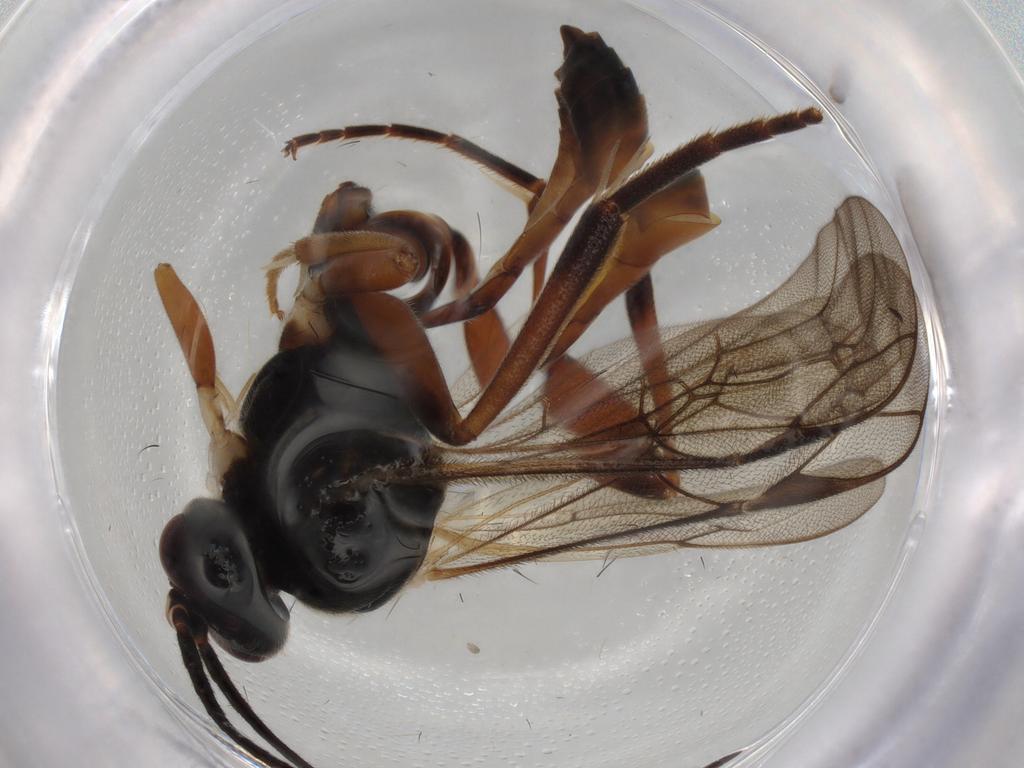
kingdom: Animalia
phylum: Arthropoda
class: Insecta
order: Hymenoptera
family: Ichneumonidae
